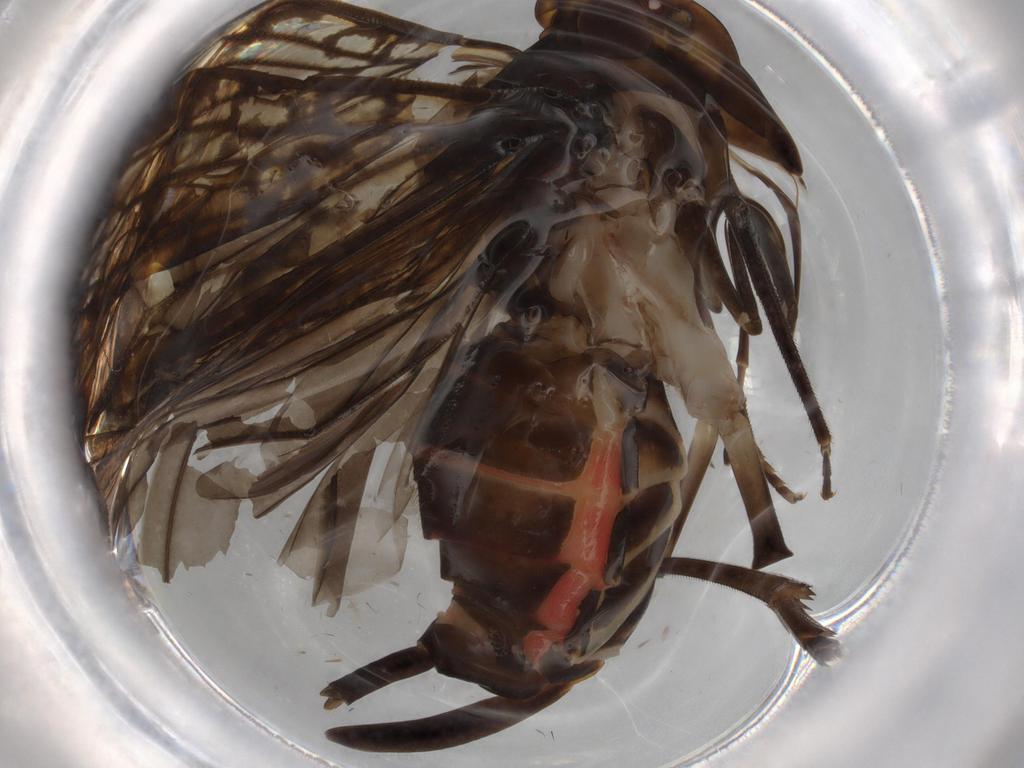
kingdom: Animalia
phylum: Arthropoda
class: Insecta
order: Hemiptera
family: Cixiidae
